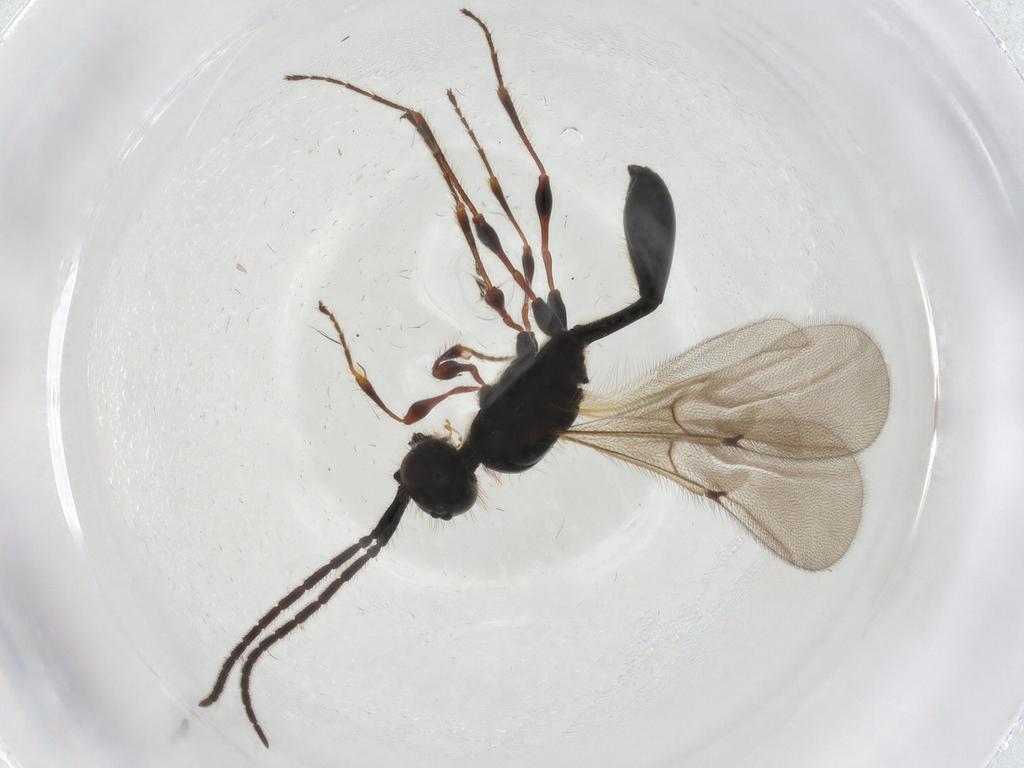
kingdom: Animalia
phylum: Arthropoda
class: Insecta
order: Hymenoptera
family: Diapriidae
